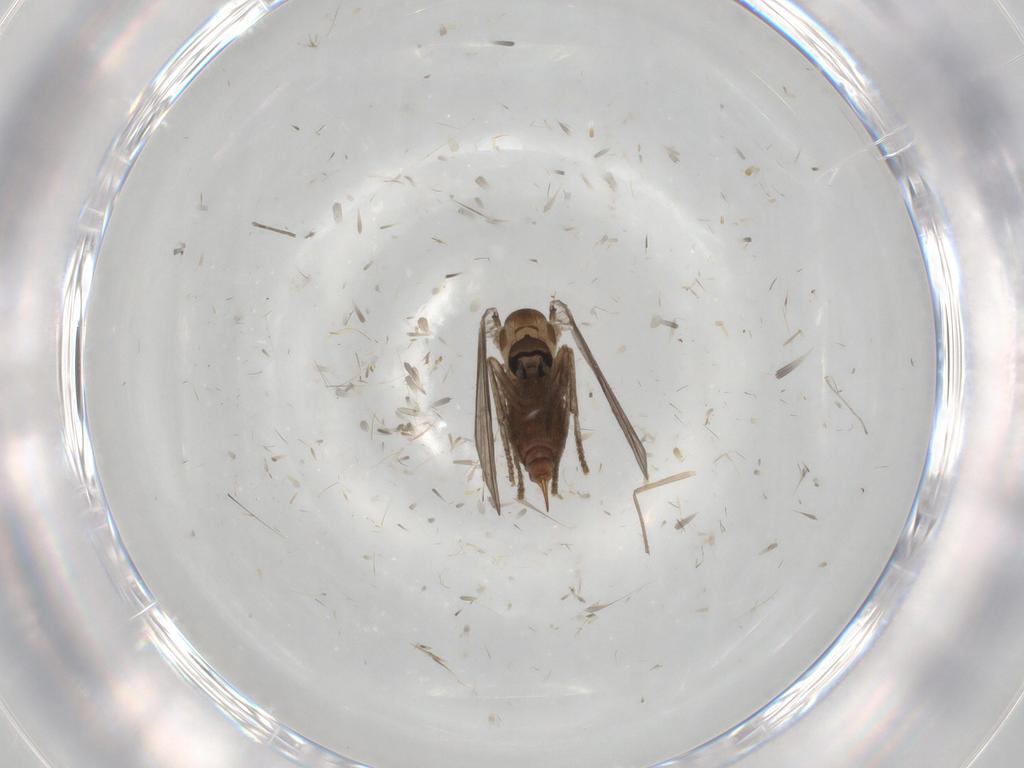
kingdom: Animalia
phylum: Arthropoda
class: Insecta
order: Diptera
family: Psychodidae
